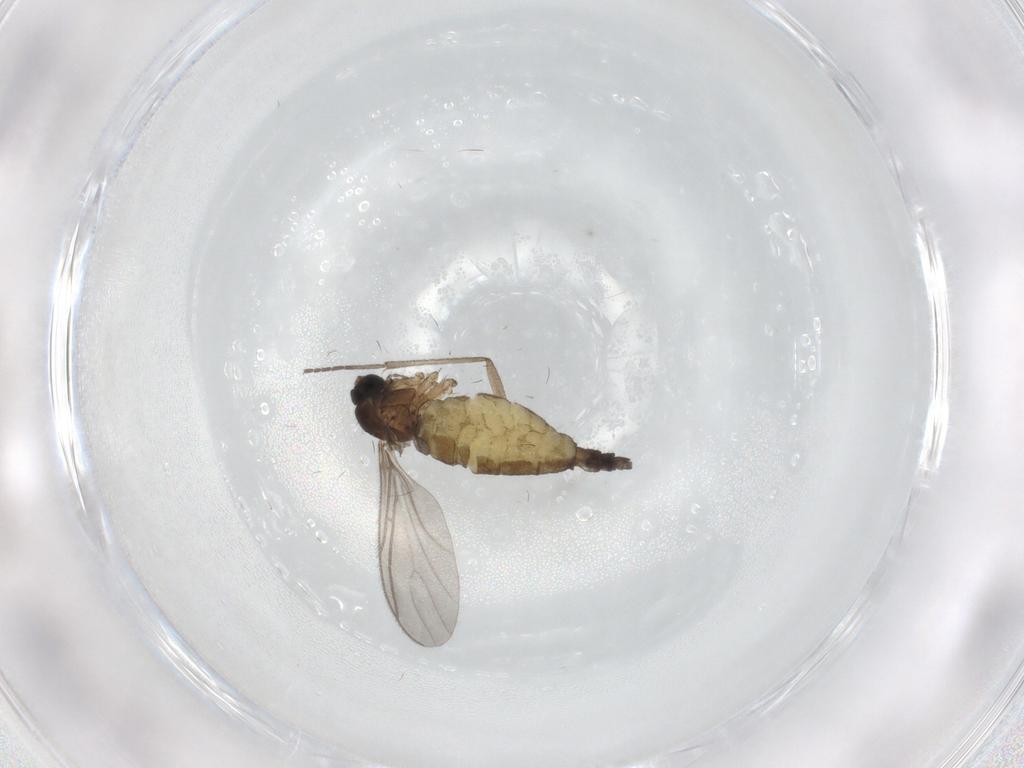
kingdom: Animalia
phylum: Arthropoda
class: Insecta
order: Diptera
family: Sciaridae
